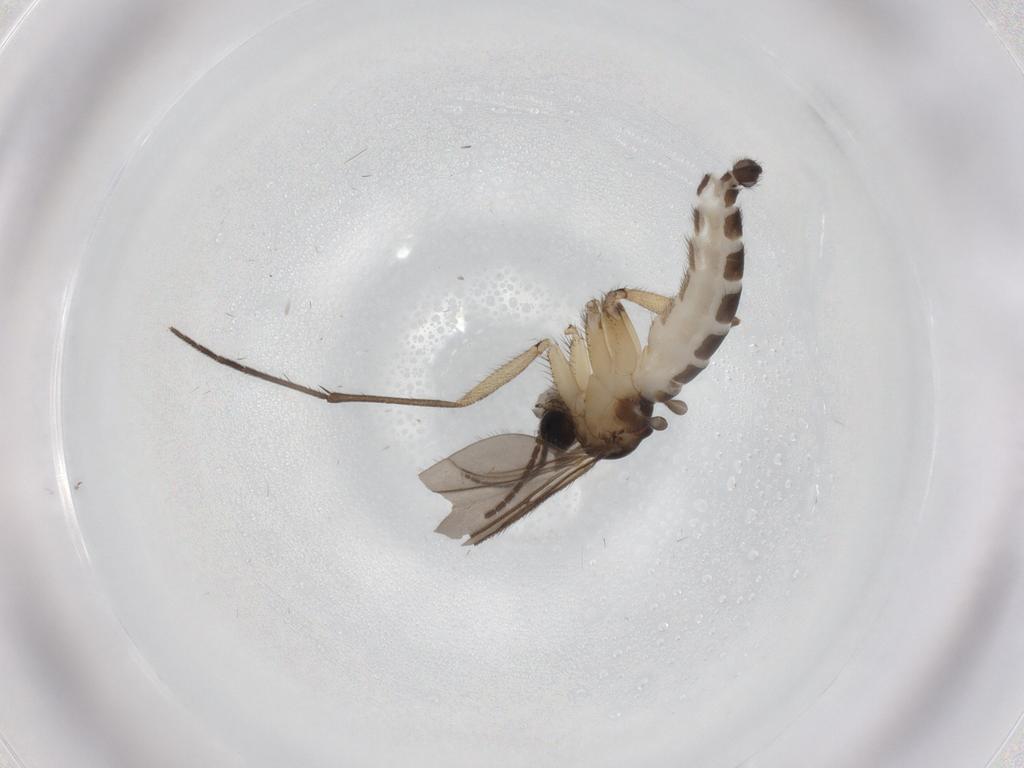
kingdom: Animalia
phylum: Arthropoda
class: Insecta
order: Diptera
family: Sciaridae
